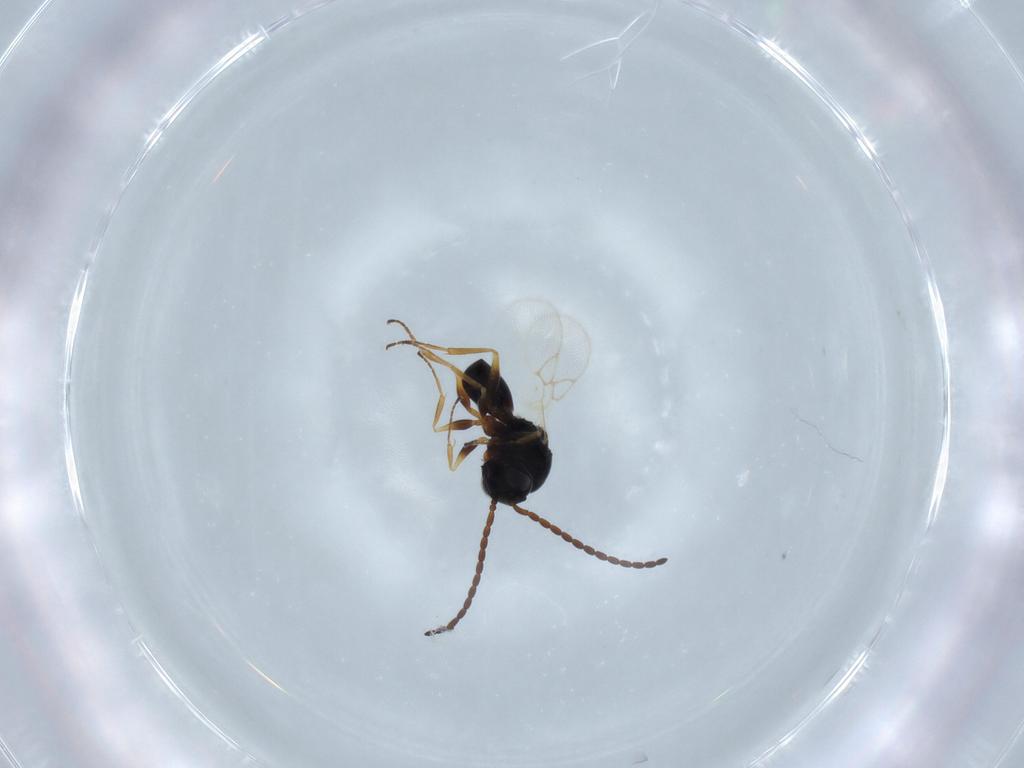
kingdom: Animalia
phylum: Arthropoda
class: Insecta
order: Hymenoptera
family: Figitidae
